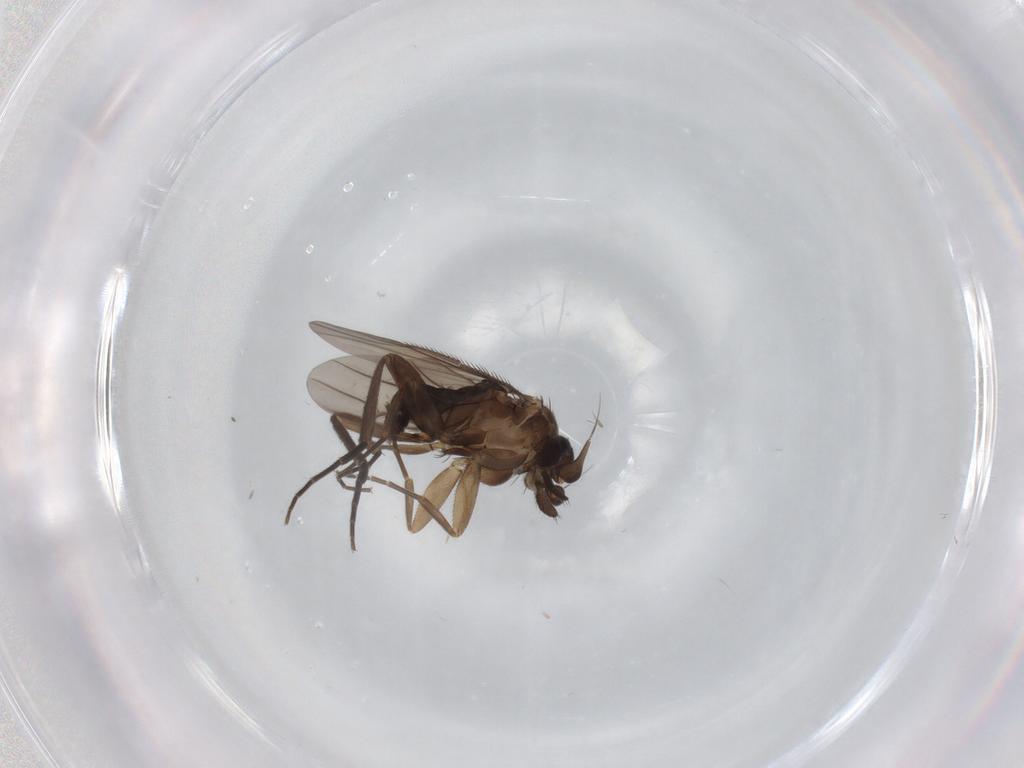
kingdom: Animalia
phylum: Arthropoda
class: Insecta
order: Diptera
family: Phoridae
